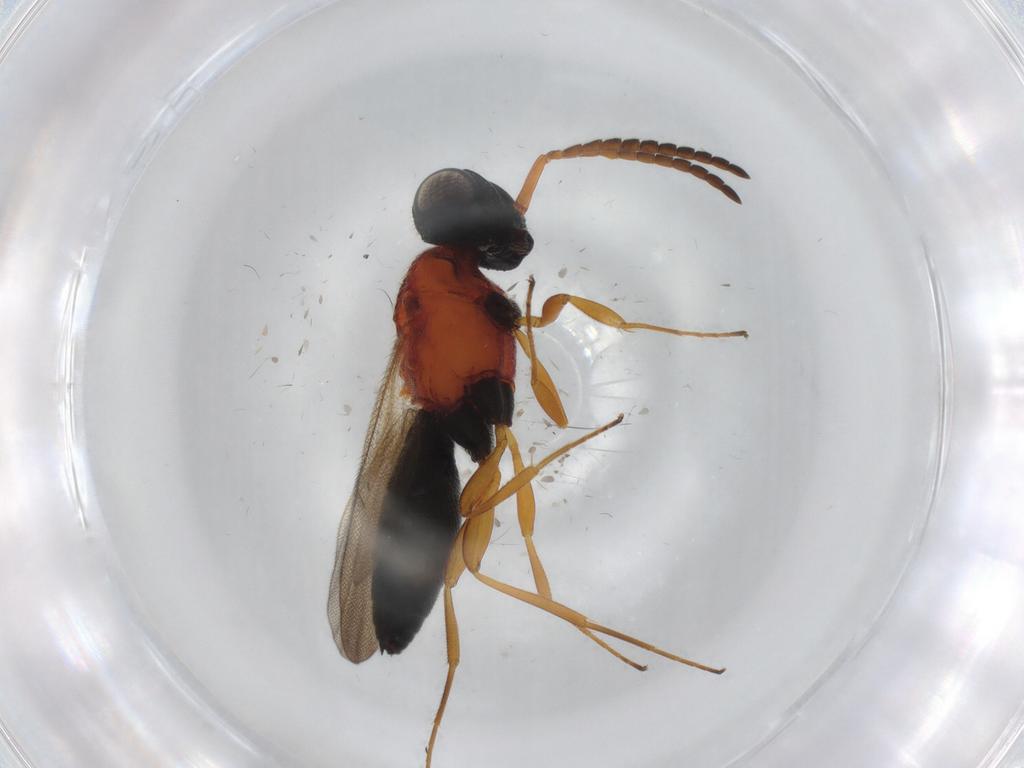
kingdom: Animalia
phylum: Arthropoda
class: Insecta
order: Hymenoptera
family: Scelionidae
